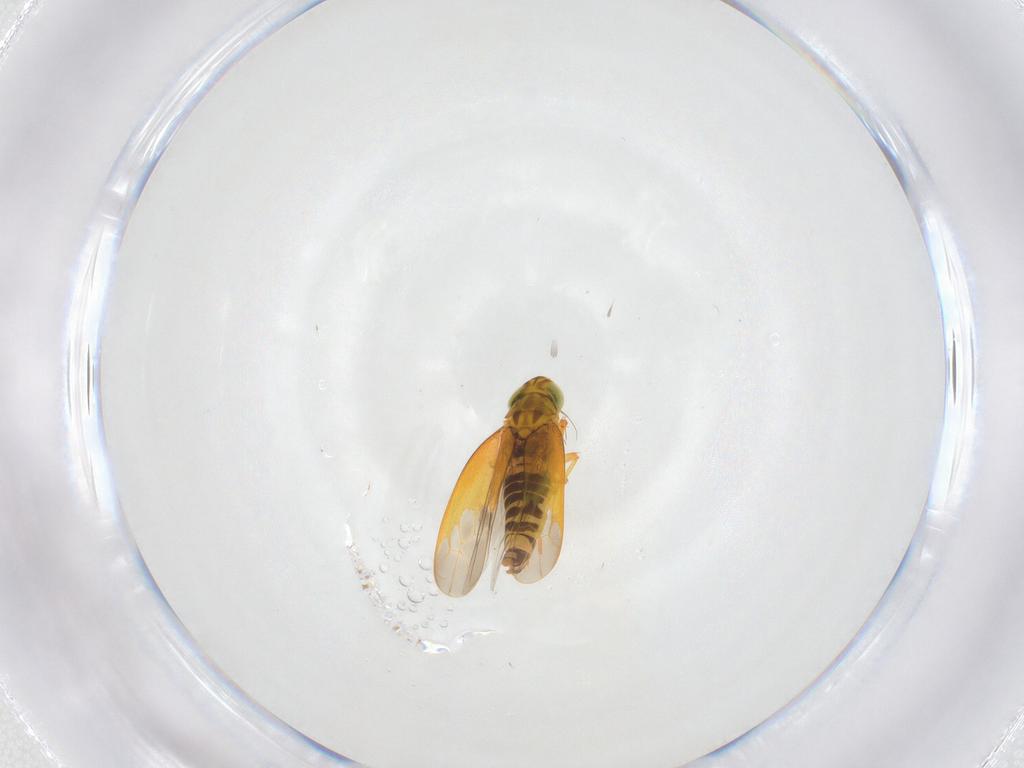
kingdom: Animalia
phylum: Arthropoda
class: Insecta
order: Hemiptera
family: Cicadellidae
